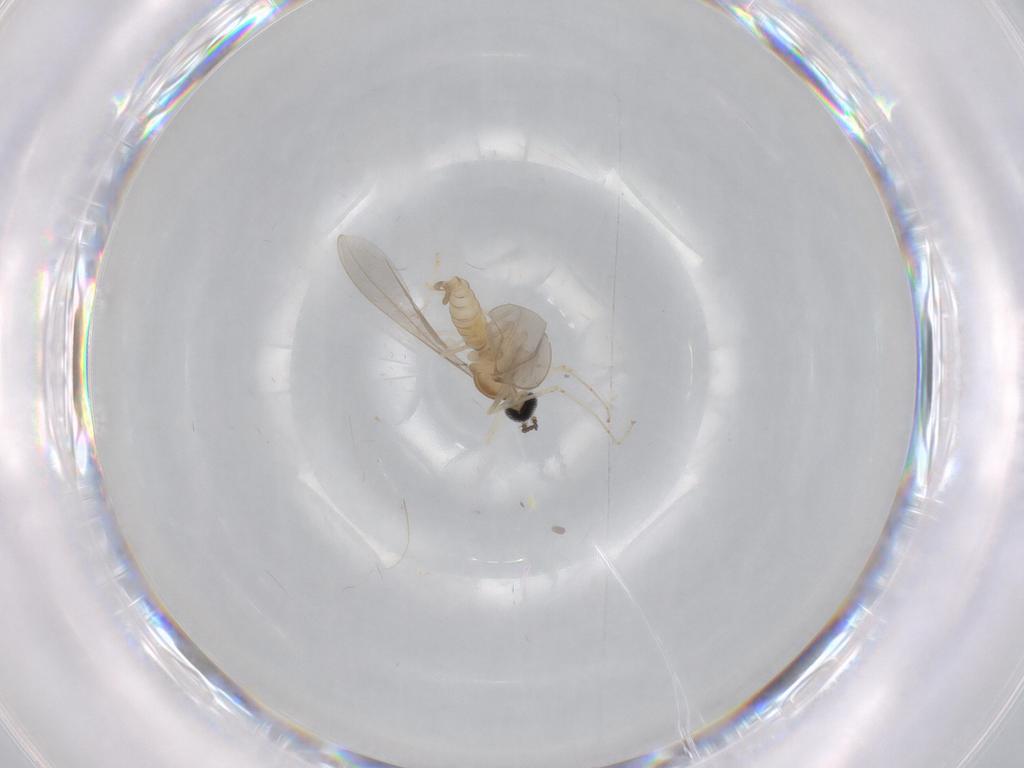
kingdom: Animalia
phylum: Arthropoda
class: Insecta
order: Diptera
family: Cecidomyiidae
